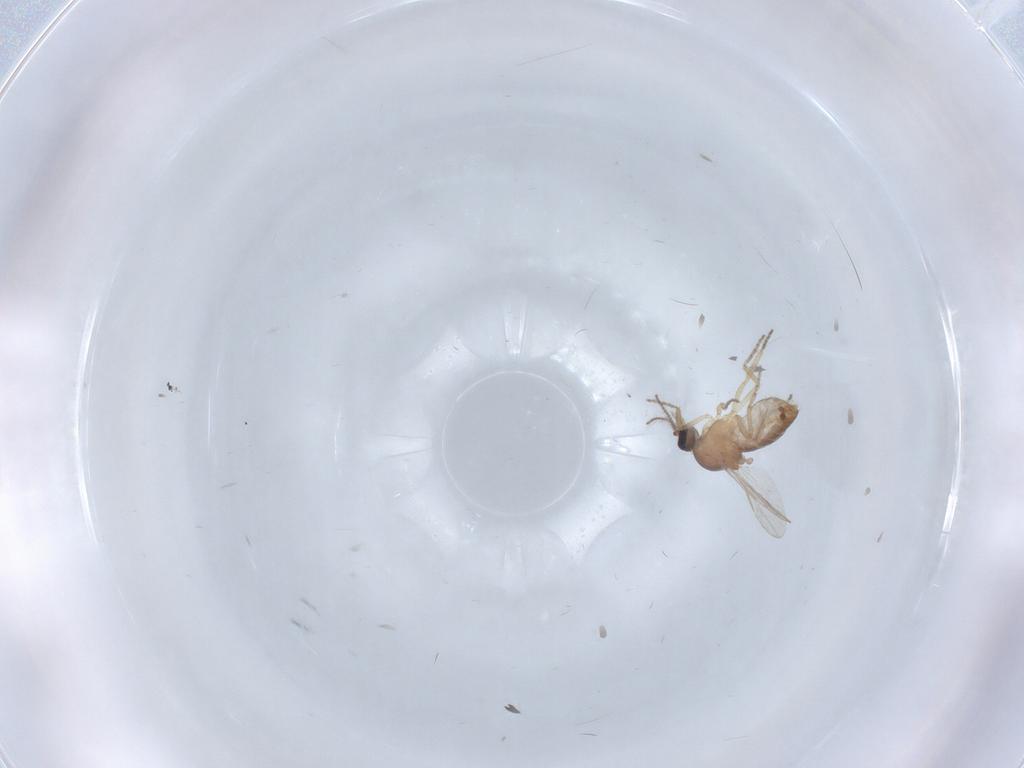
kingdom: Animalia
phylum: Arthropoda
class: Insecta
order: Diptera
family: Ceratopogonidae
